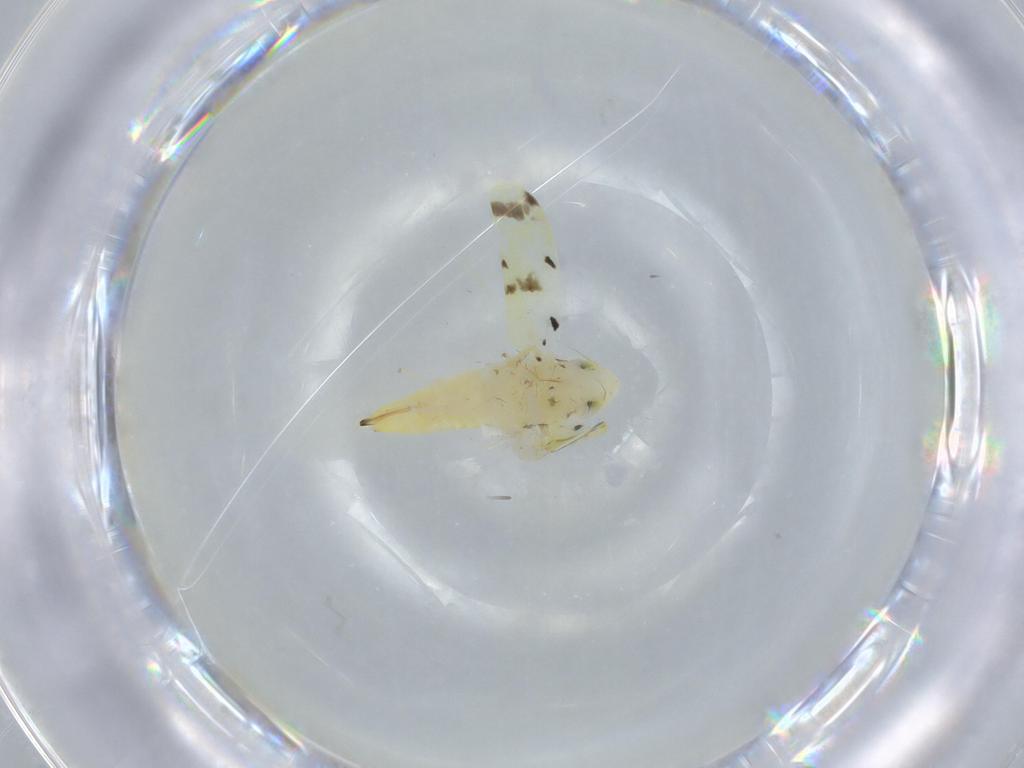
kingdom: Animalia
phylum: Arthropoda
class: Insecta
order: Hemiptera
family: Cicadellidae
